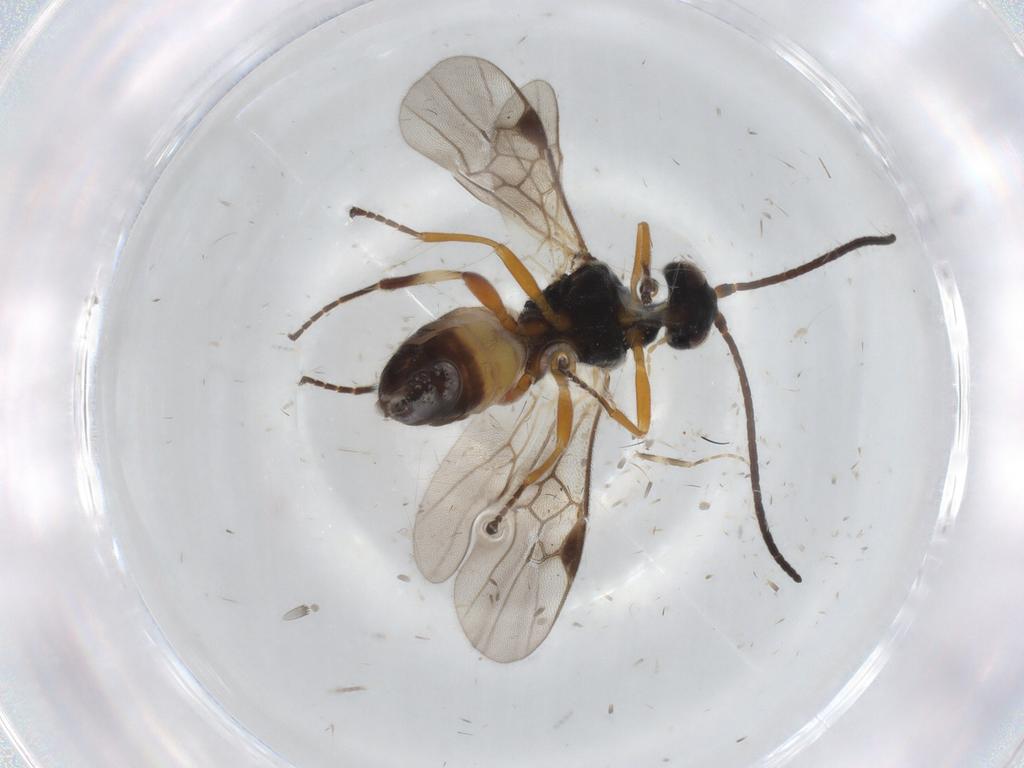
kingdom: Animalia
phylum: Arthropoda
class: Insecta
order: Hymenoptera
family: Braconidae
